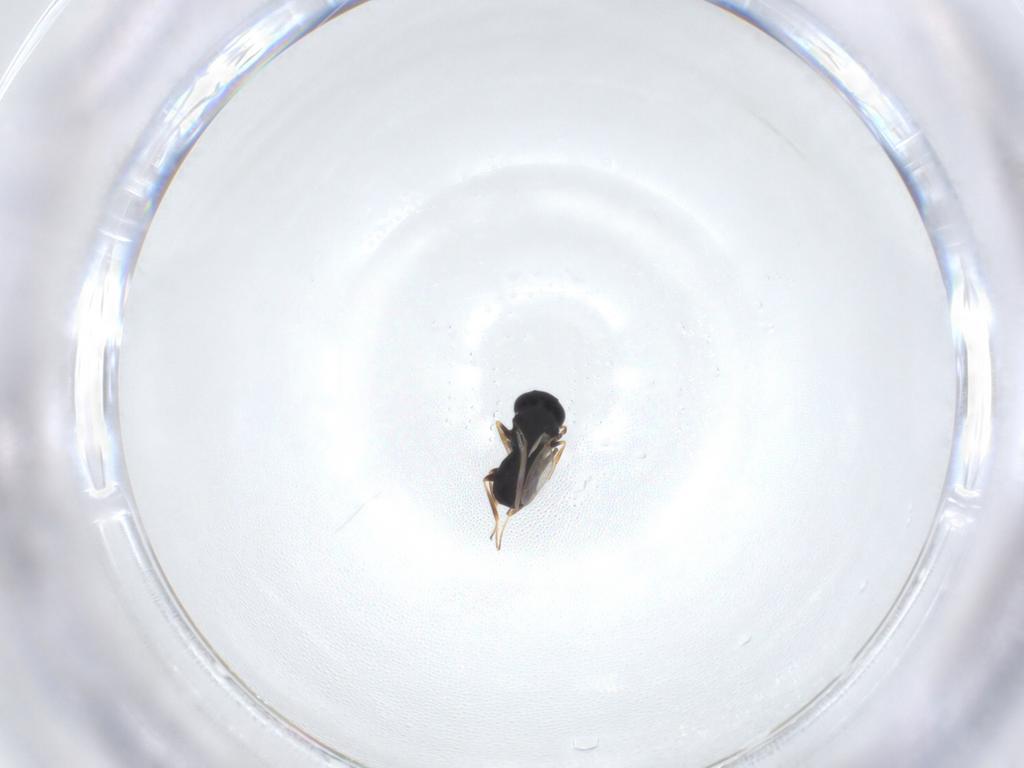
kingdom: Animalia
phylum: Arthropoda
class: Insecta
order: Hymenoptera
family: Scelionidae
